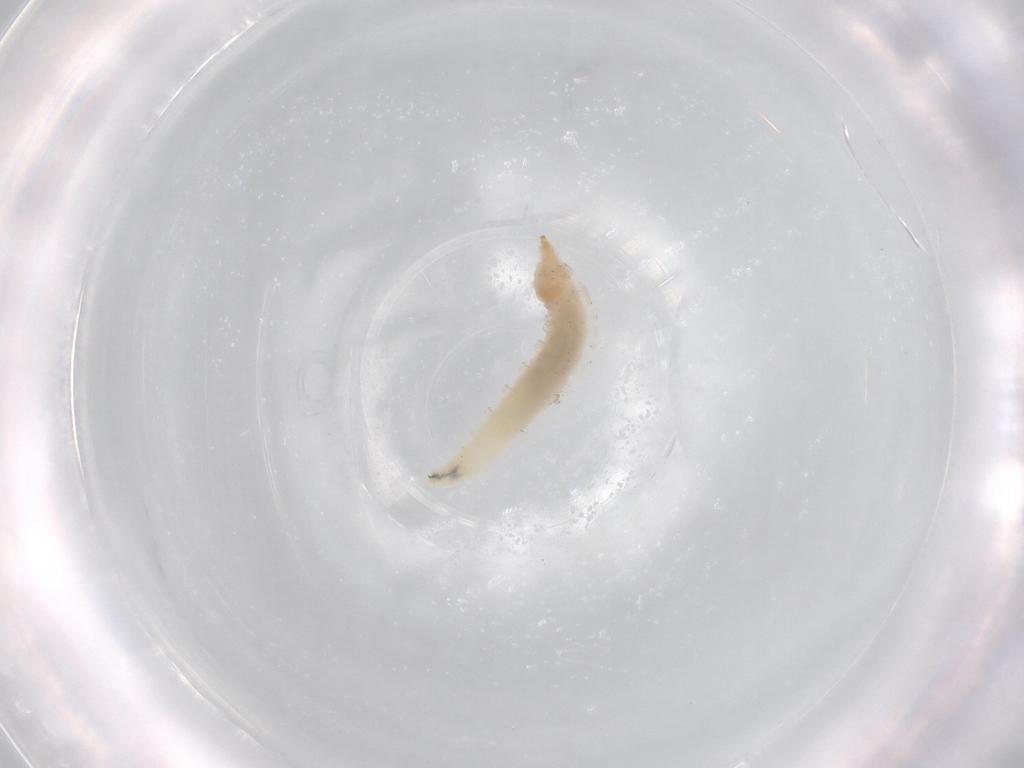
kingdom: Animalia
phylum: Arthropoda
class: Insecta
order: Diptera
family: Drosophilidae
